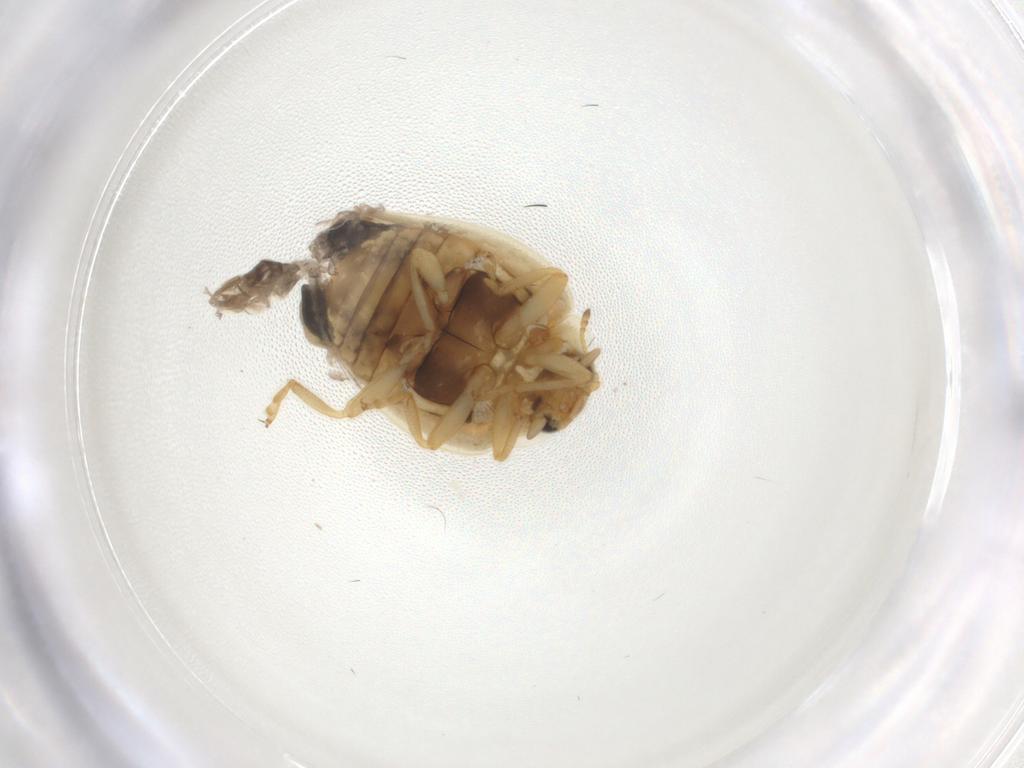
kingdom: Animalia
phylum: Arthropoda
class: Insecta
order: Coleoptera
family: Coccinellidae
